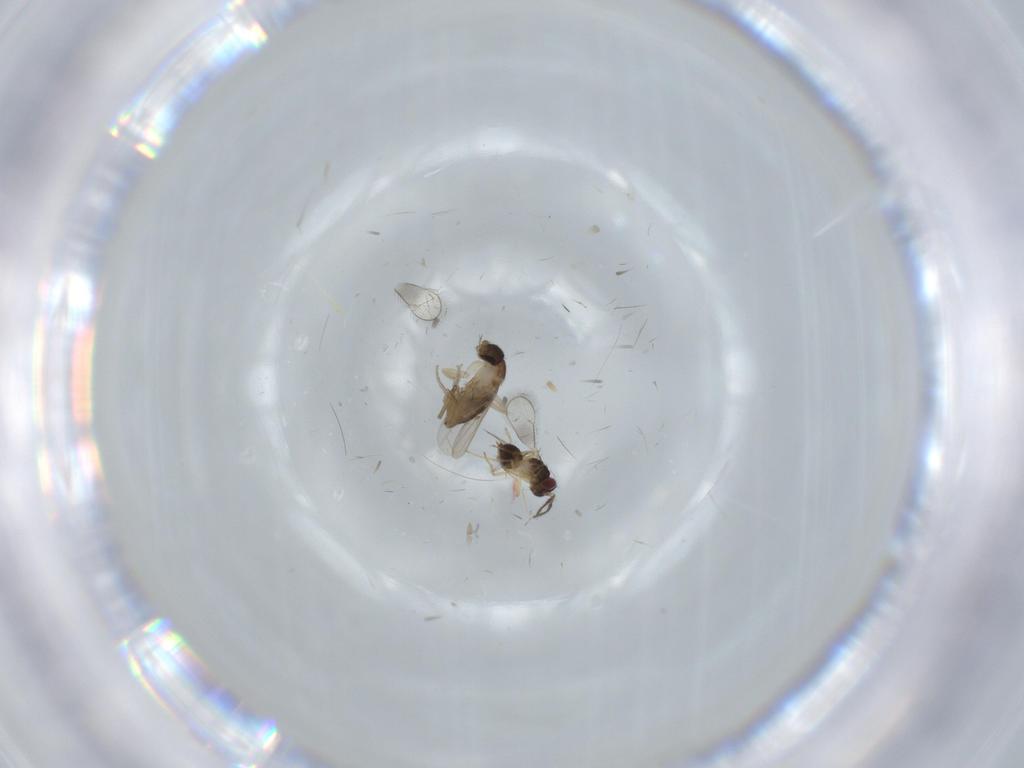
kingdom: Animalia
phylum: Arthropoda
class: Insecta
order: Diptera
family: Phoridae
